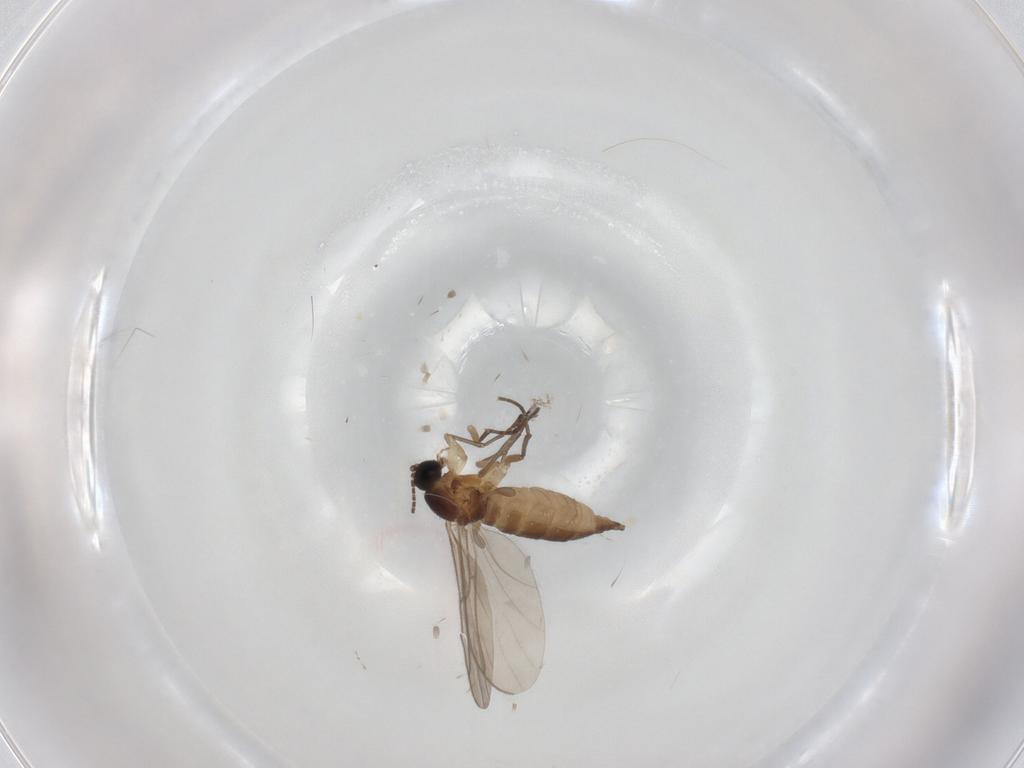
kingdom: Animalia
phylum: Arthropoda
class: Insecta
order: Diptera
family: Sciaridae
